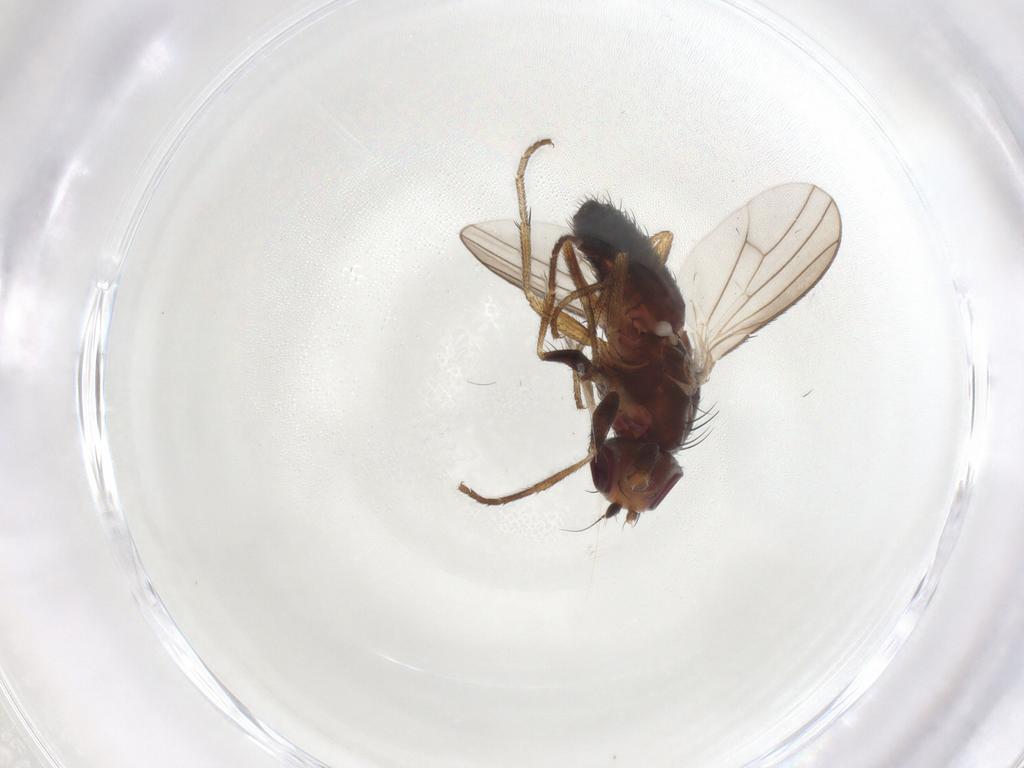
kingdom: Animalia
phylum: Arthropoda
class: Insecta
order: Diptera
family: Heleomyzidae
